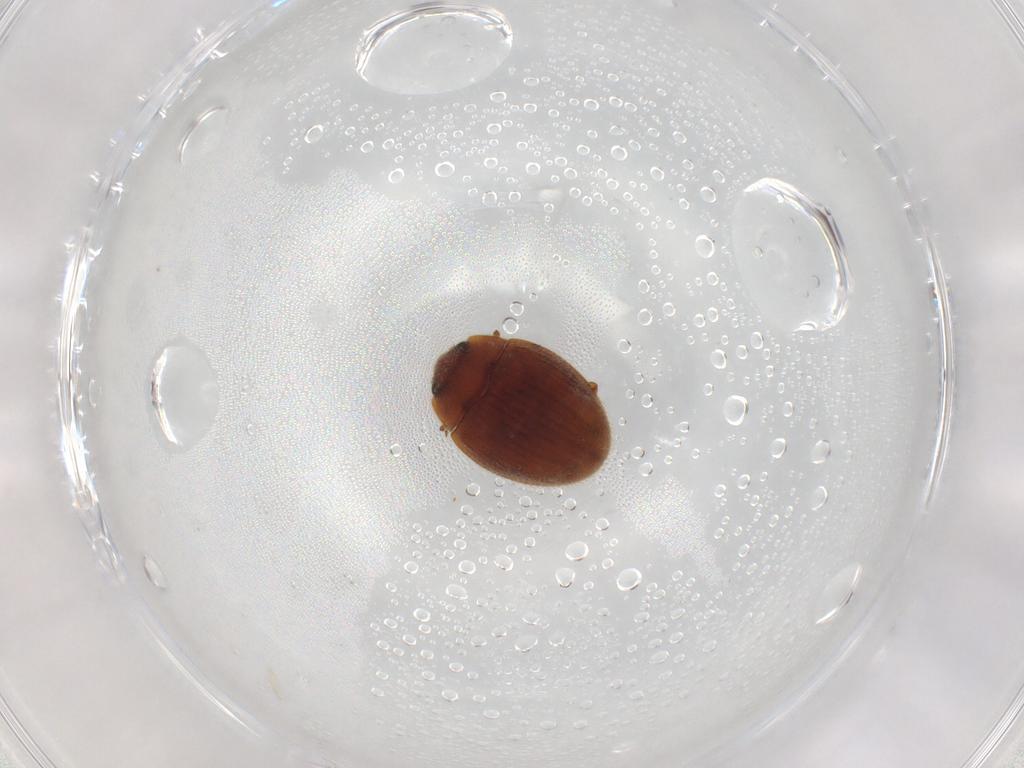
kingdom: Animalia
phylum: Arthropoda
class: Insecta
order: Coleoptera
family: Euxestidae
